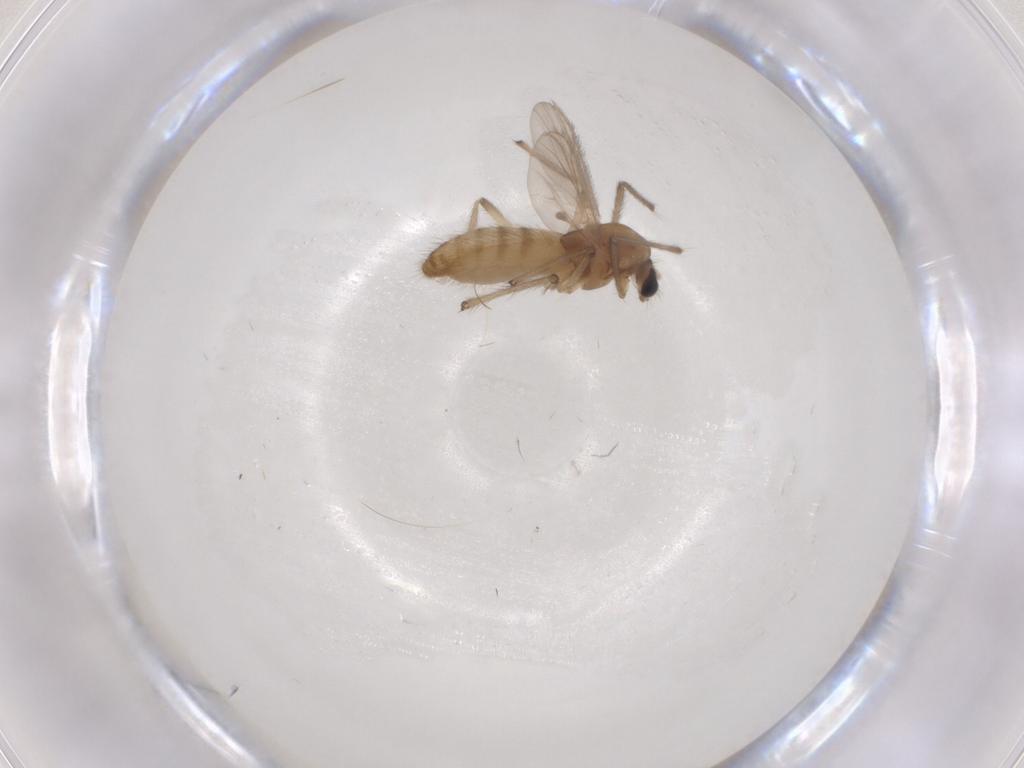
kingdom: Animalia
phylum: Arthropoda
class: Insecta
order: Diptera
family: Chironomidae
